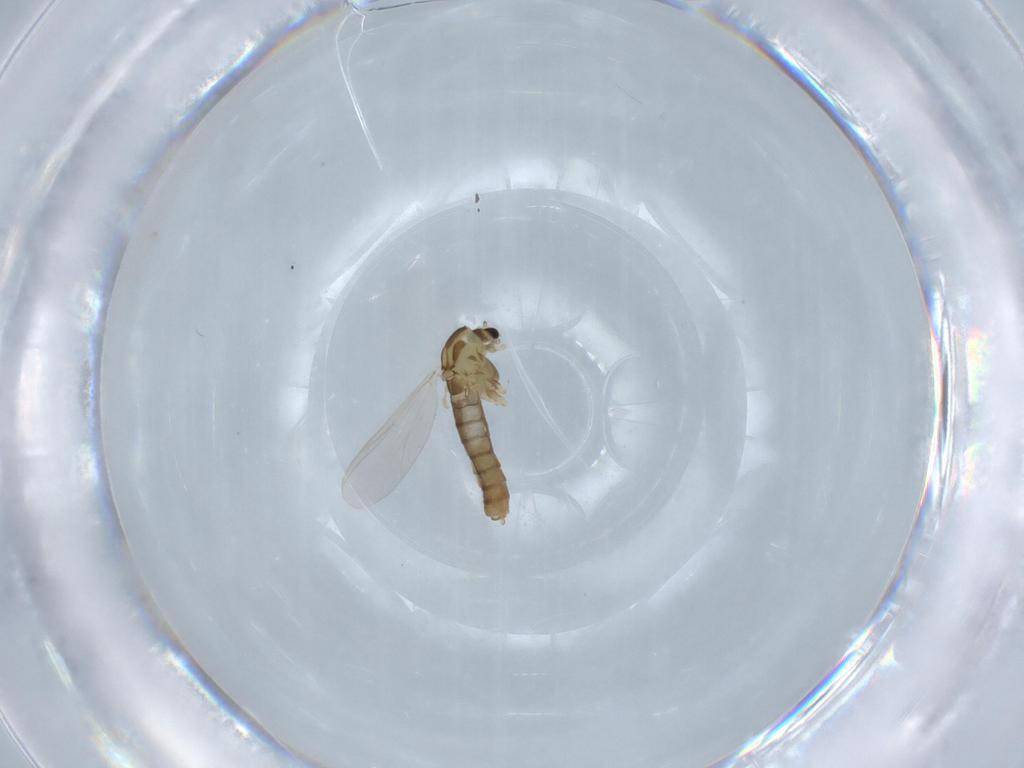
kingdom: Animalia
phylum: Arthropoda
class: Insecta
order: Diptera
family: Chironomidae
